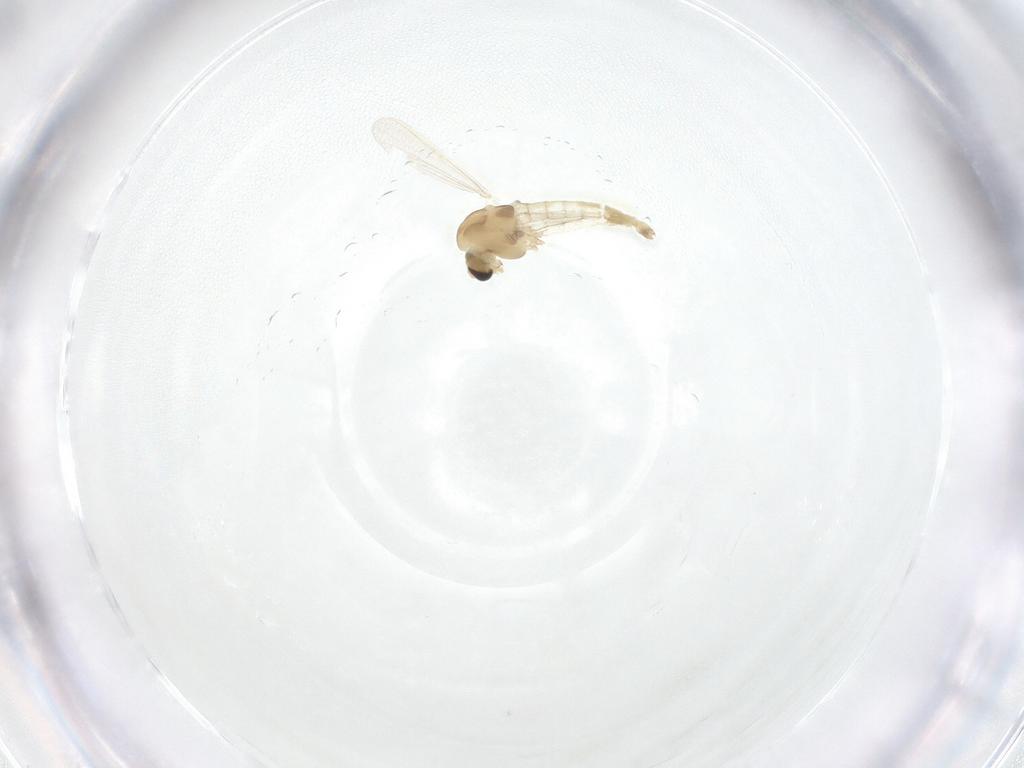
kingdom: Animalia
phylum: Arthropoda
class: Insecta
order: Diptera
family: Chironomidae
